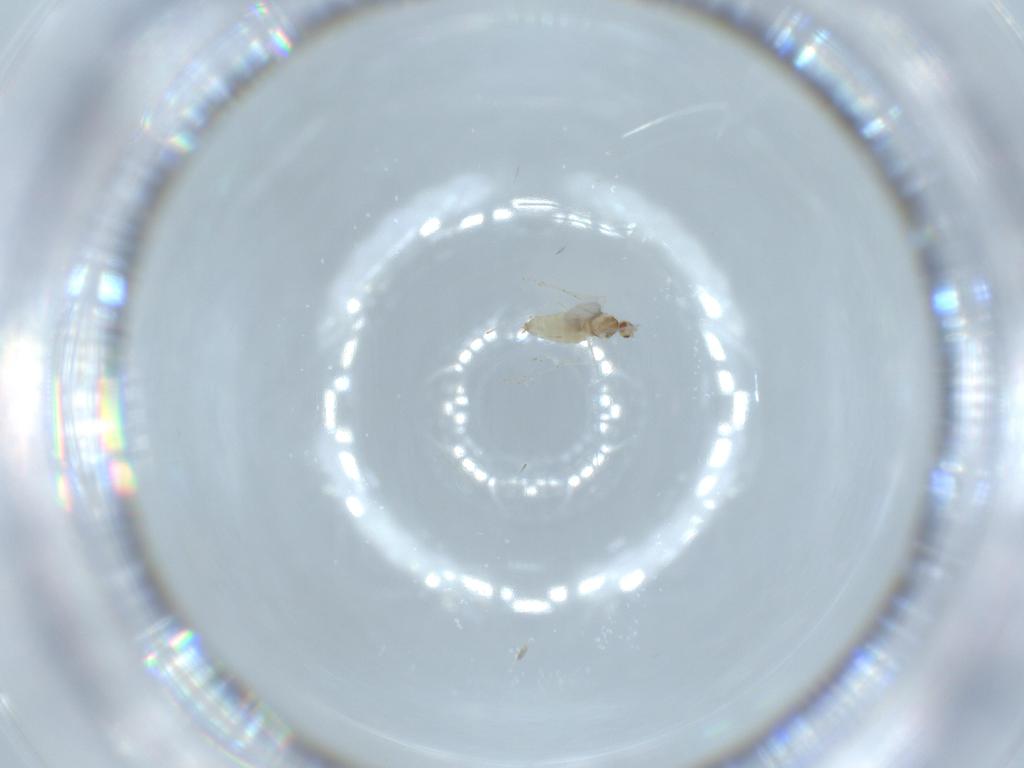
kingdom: Animalia
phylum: Arthropoda
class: Insecta
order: Diptera
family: Cecidomyiidae
